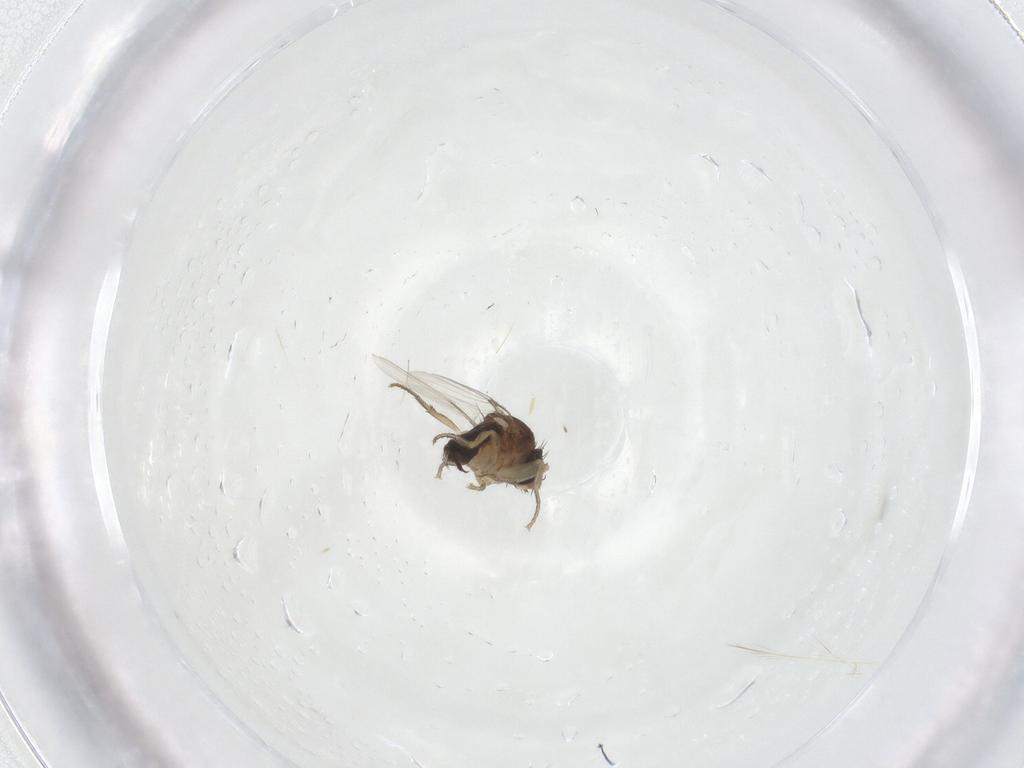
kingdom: Animalia
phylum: Arthropoda
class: Insecta
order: Diptera
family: Phoridae
